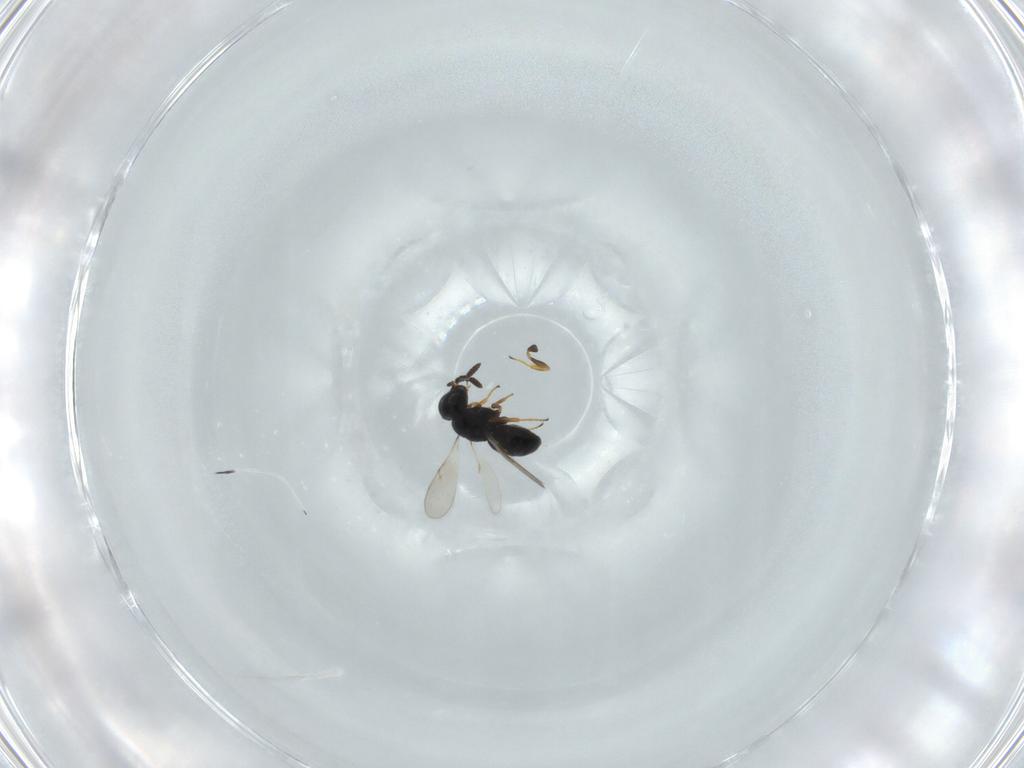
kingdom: Animalia
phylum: Arthropoda
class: Insecta
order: Hymenoptera
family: Scelionidae
